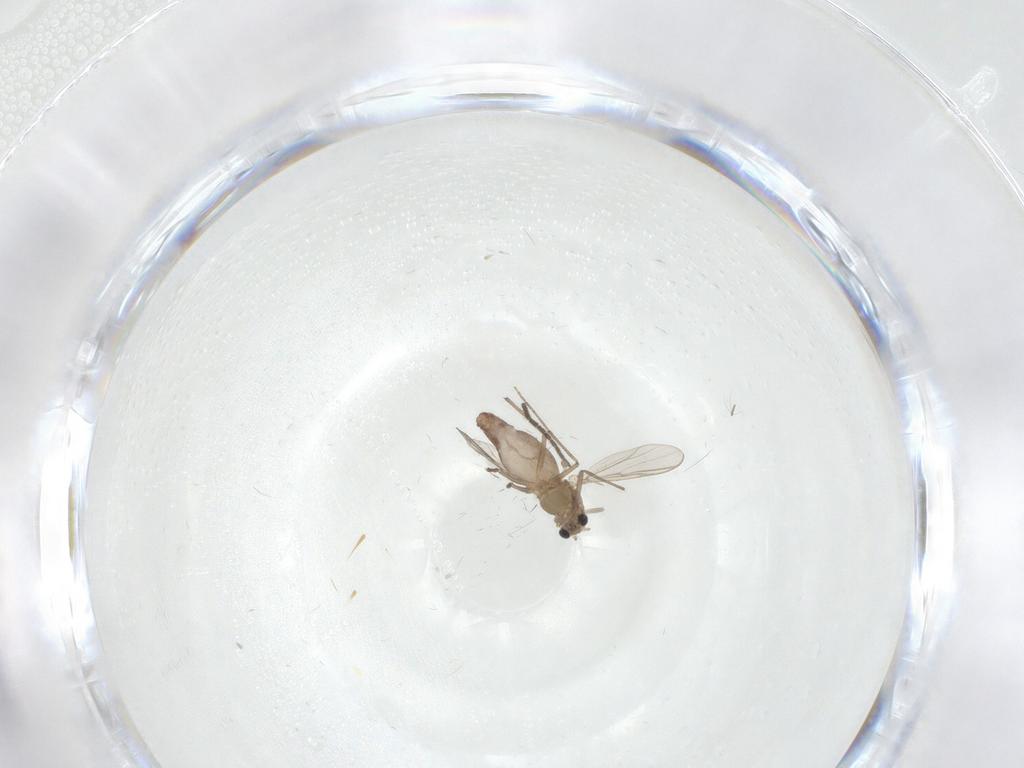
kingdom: Animalia
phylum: Arthropoda
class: Insecta
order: Diptera
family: Chironomidae
